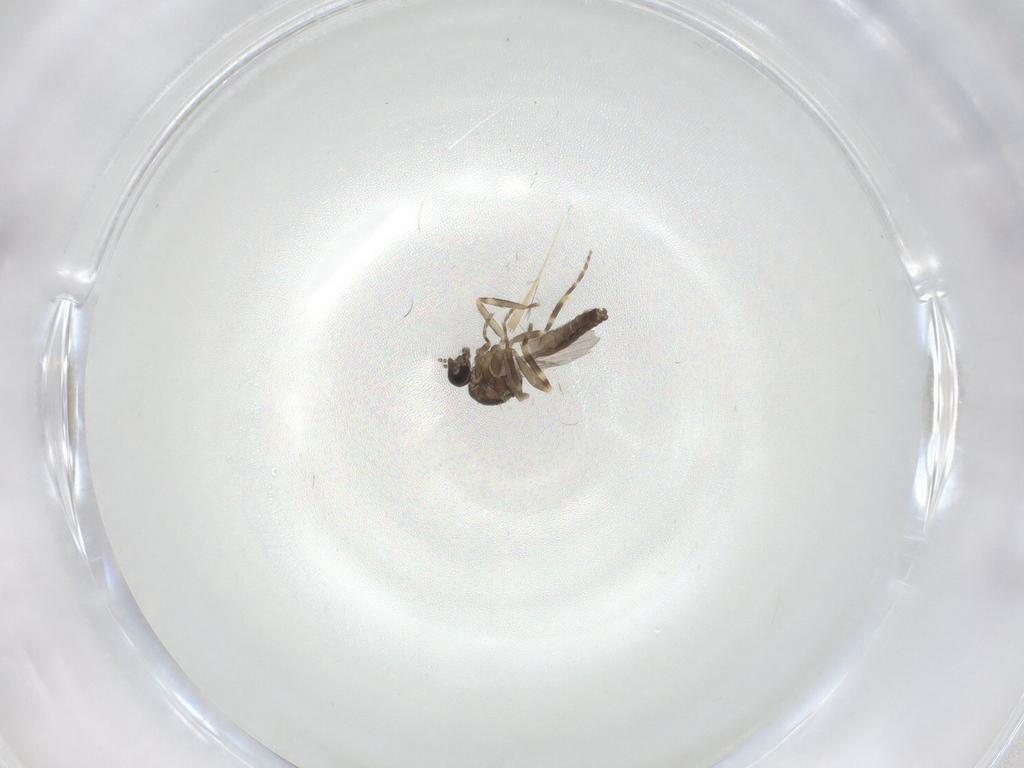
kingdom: Animalia
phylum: Arthropoda
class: Insecta
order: Diptera
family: Ceratopogonidae
